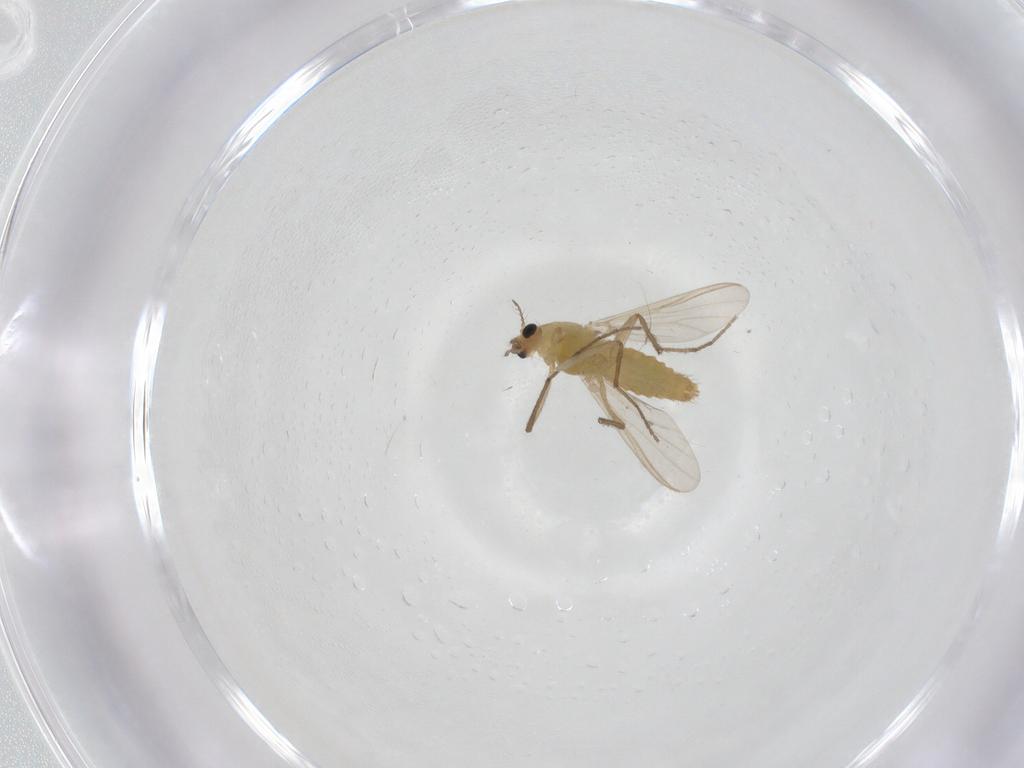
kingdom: Animalia
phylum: Arthropoda
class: Insecta
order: Diptera
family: Chironomidae
